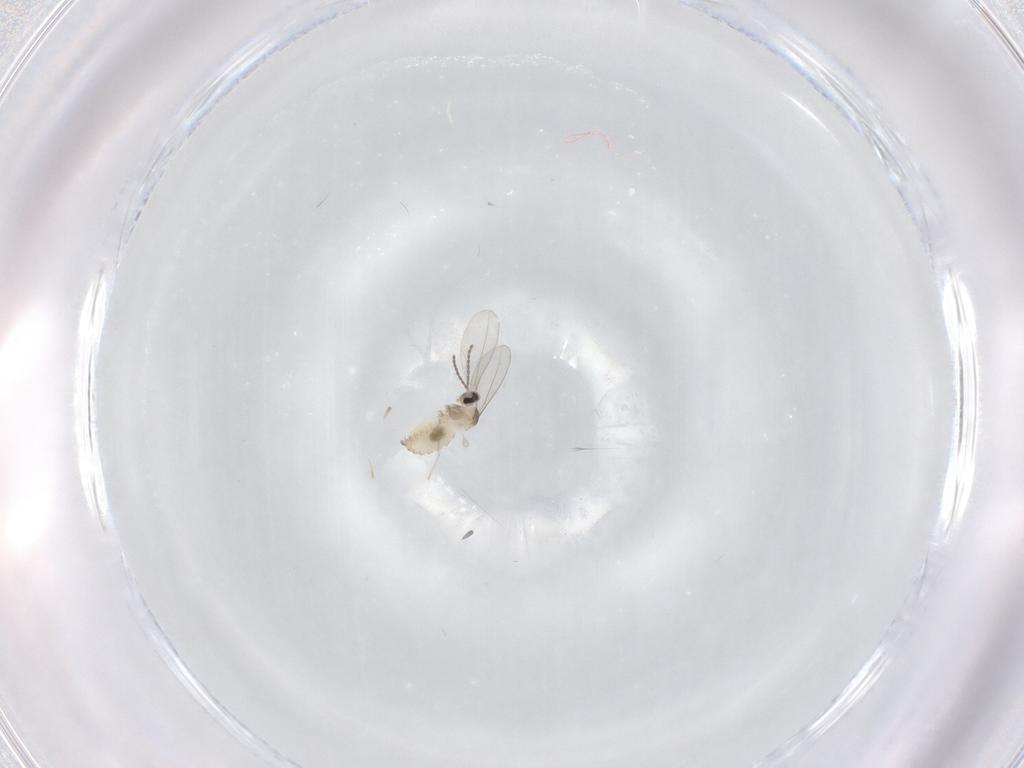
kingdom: Animalia
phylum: Arthropoda
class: Insecta
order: Diptera
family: Cecidomyiidae
